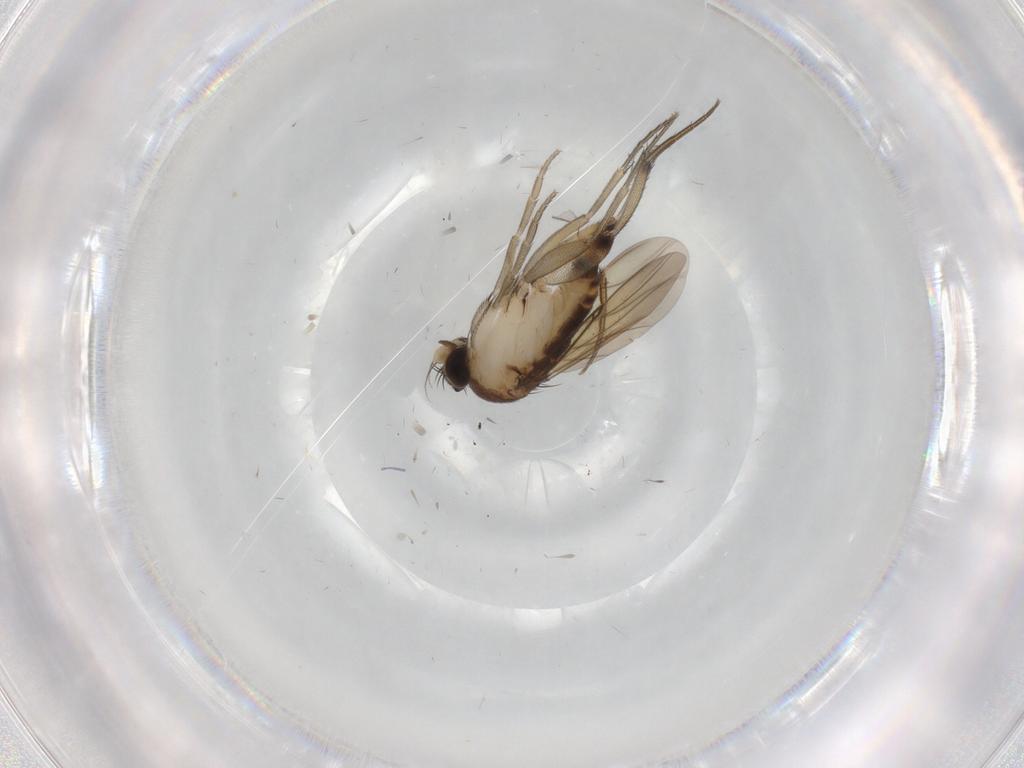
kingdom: Animalia
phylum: Arthropoda
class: Insecta
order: Diptera
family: Phoridae
